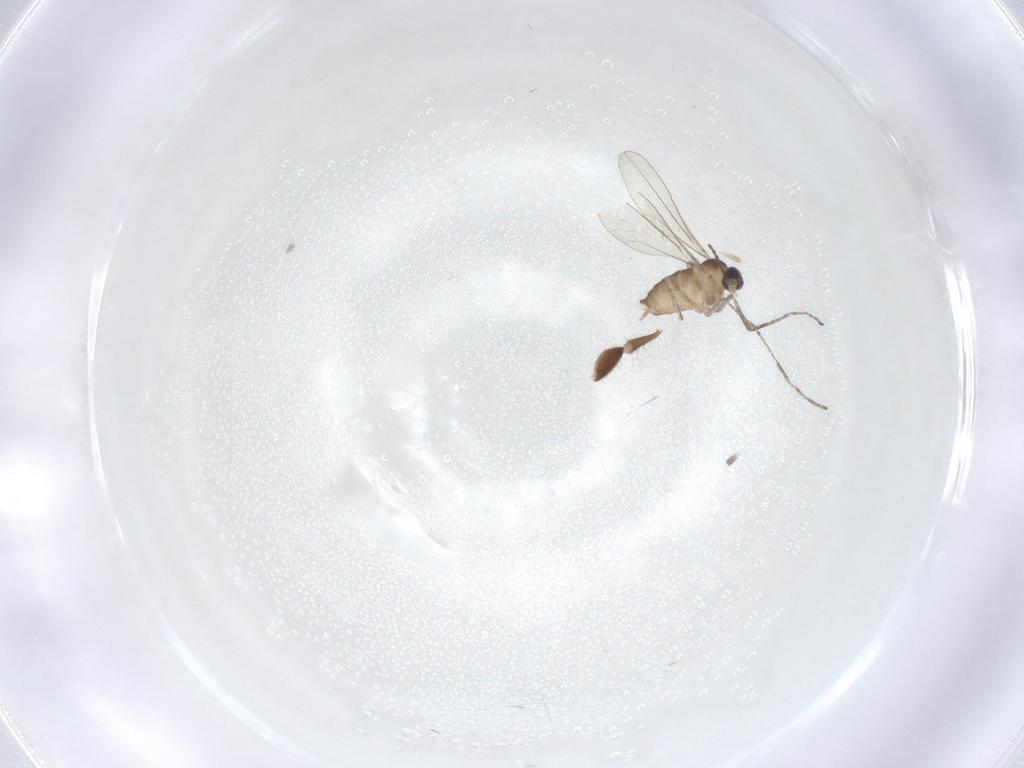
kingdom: Animalia
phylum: Arthropoda
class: Insecta
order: Diptera
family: Cecidomyiidae
